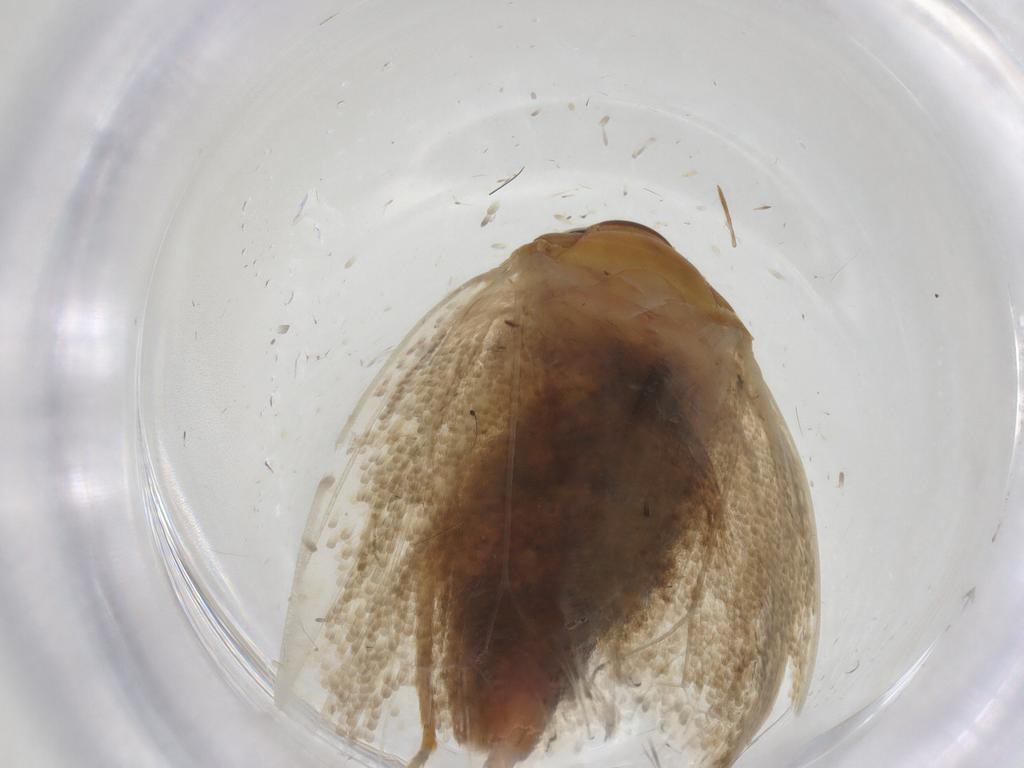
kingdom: Animalia
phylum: Arthropoda
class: Insecta
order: Lepidoptera
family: Oecophoridae
